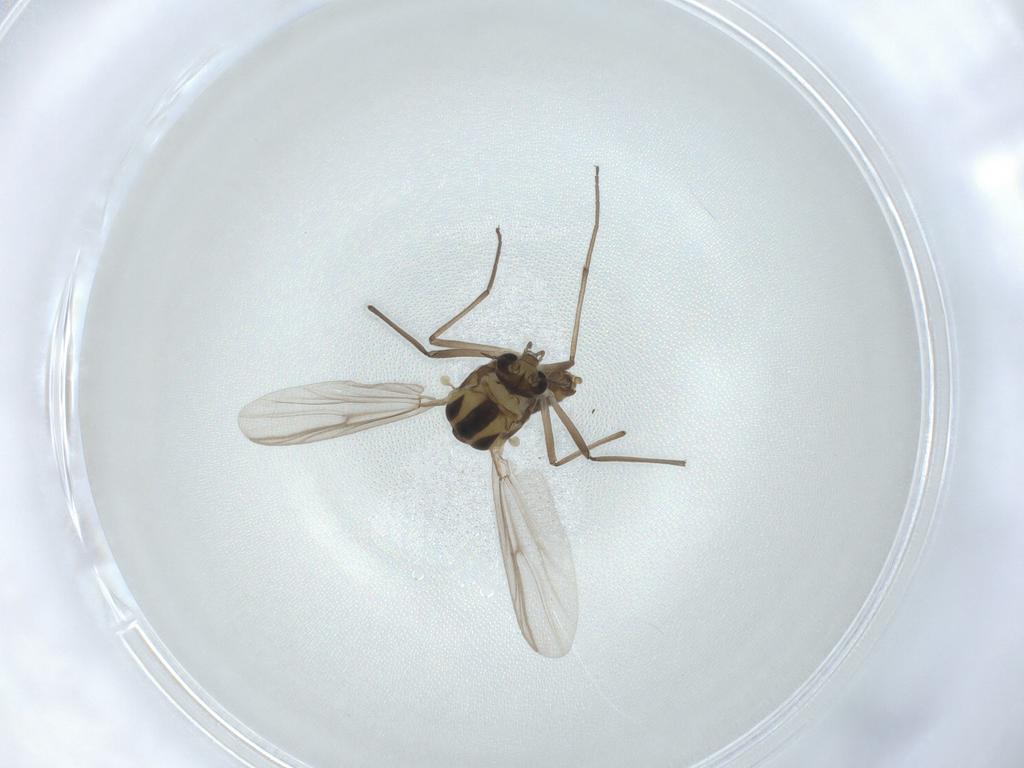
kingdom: Animalia
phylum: Arthropoda
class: Insecta
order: Diptera
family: Chironomidae
